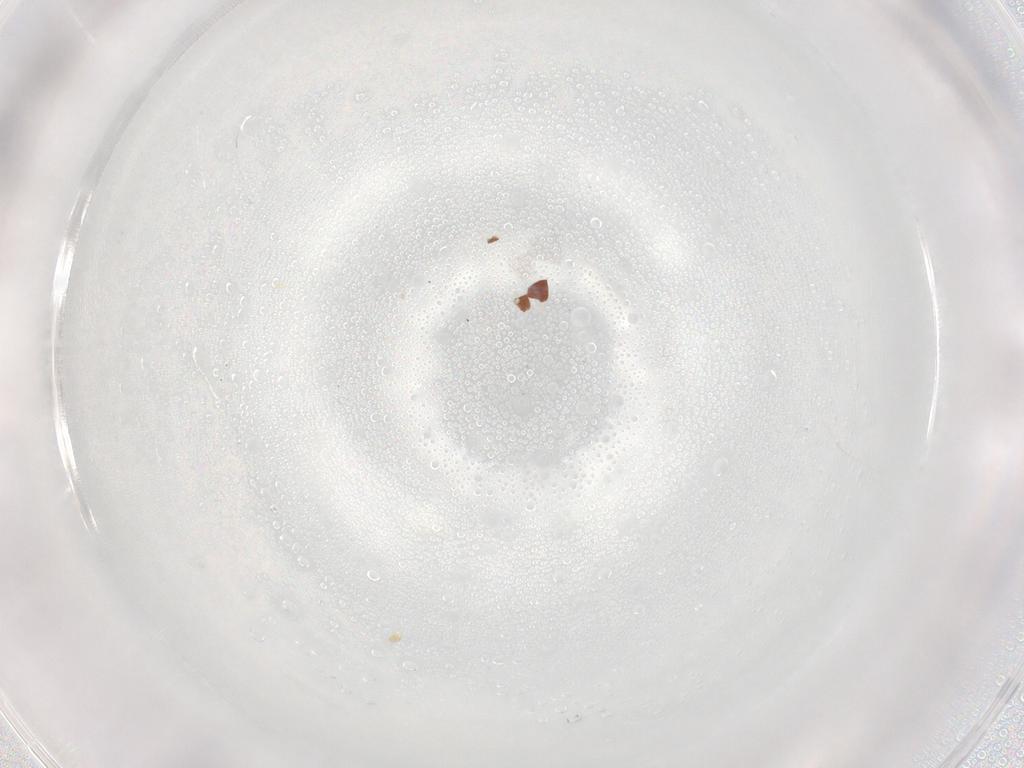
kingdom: Animalia
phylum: Arthropoda
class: Arachnida
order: Sarcoptiformes
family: Galumnidae
